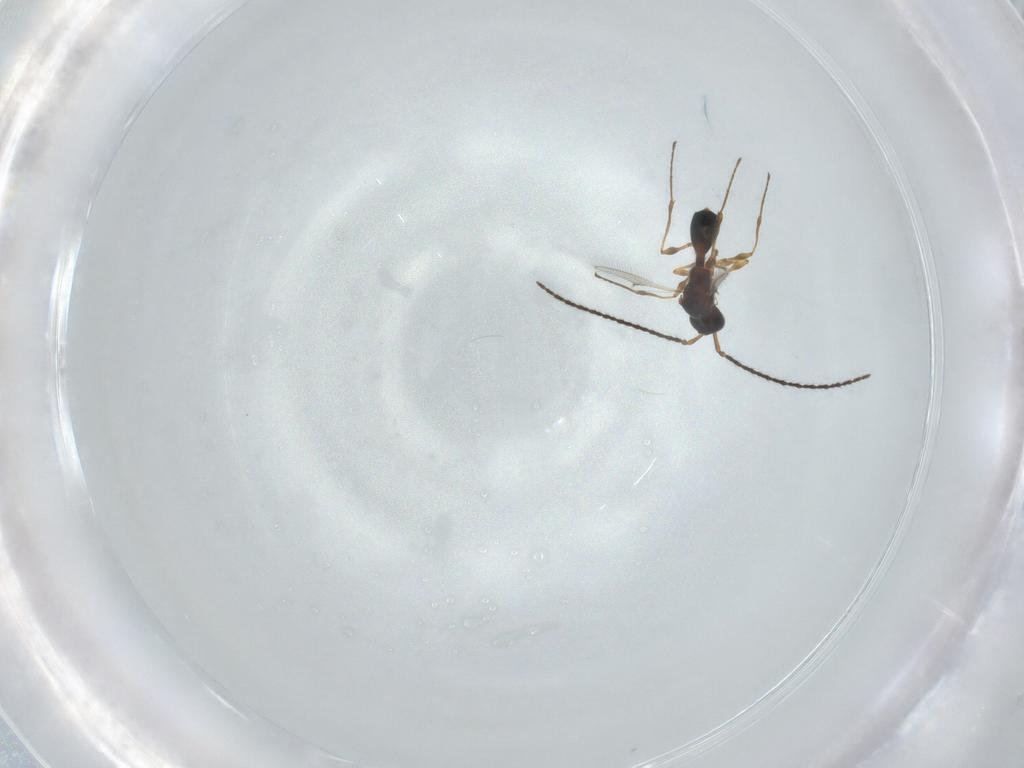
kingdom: Animalia
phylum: Arthropoda
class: Insecta
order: Hymenoptera
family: Diapriidae
